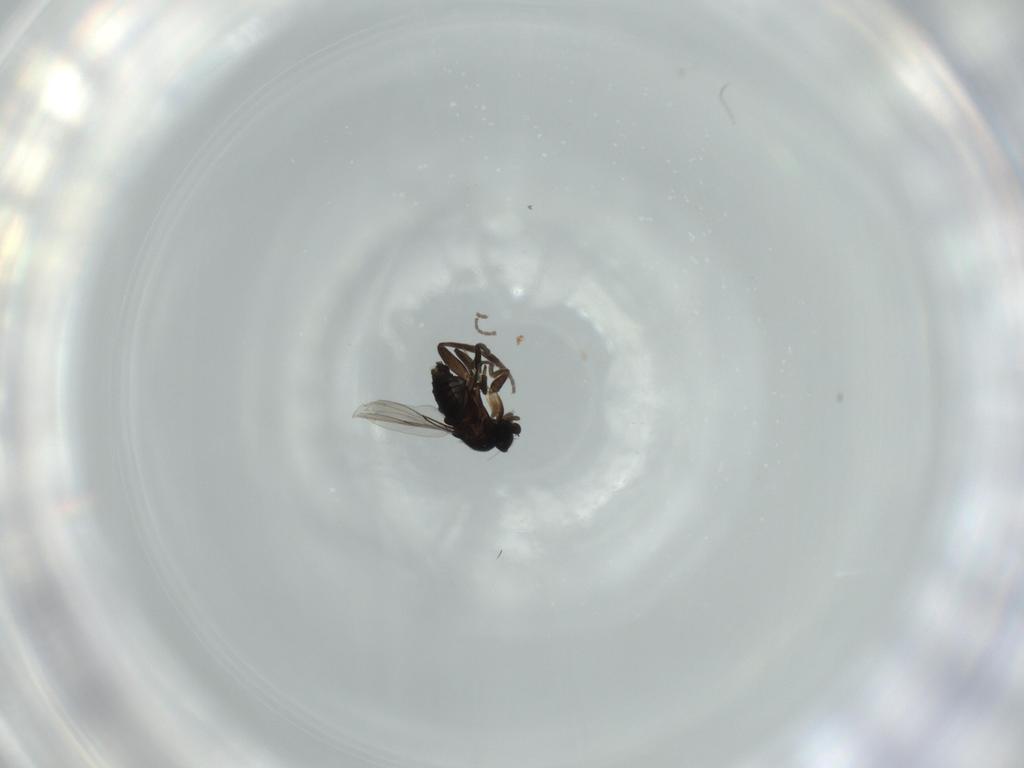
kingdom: Animalia
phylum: Arthropoda
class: Insecta
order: Diptera
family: Phoridae
